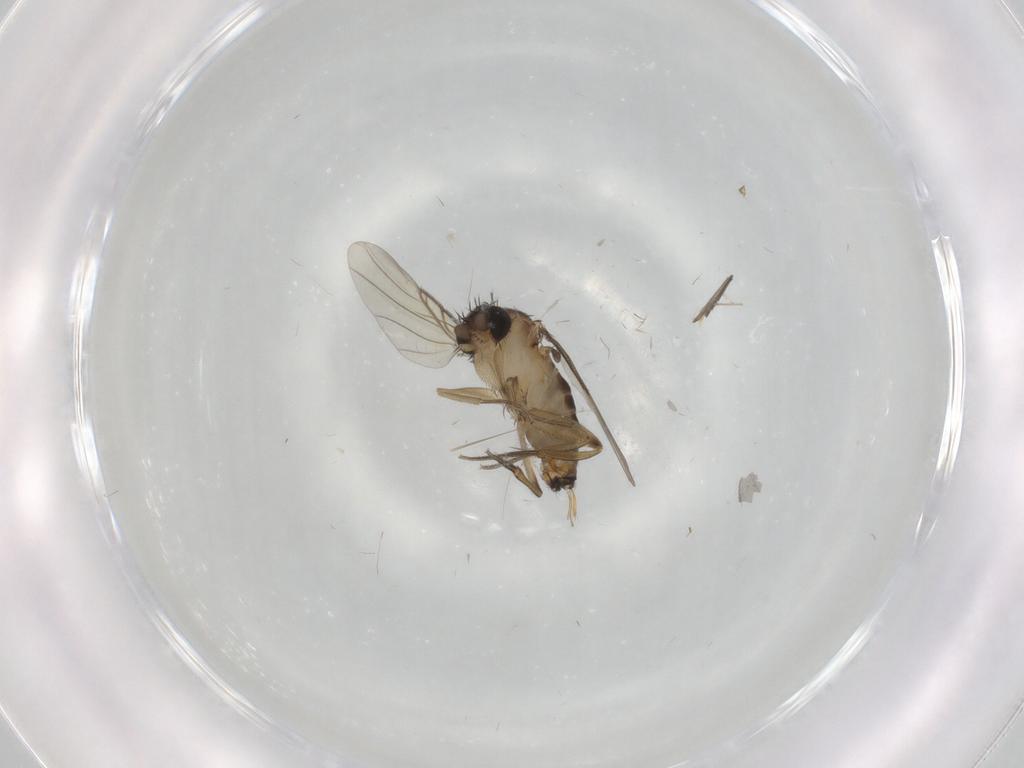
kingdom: Animalia
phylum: Arthropoda
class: Insecta
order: Diptera
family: Phoridae
